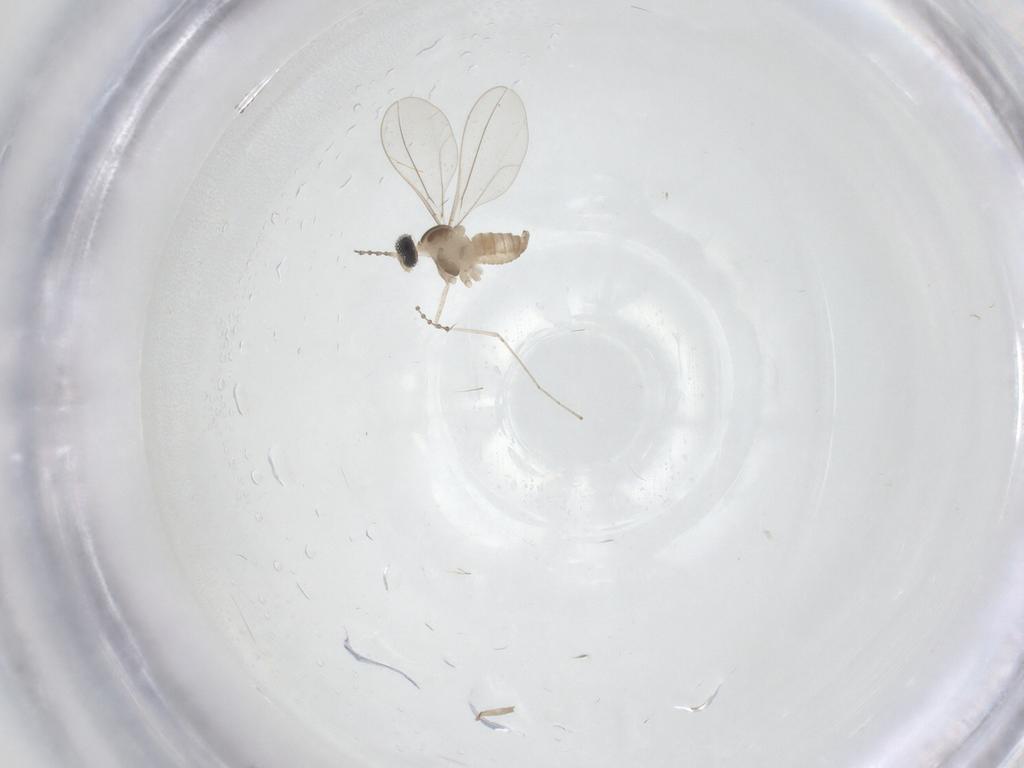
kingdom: Animalia
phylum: Arthropoda
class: Insecta
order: Diptera
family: Cecidomyiidae
